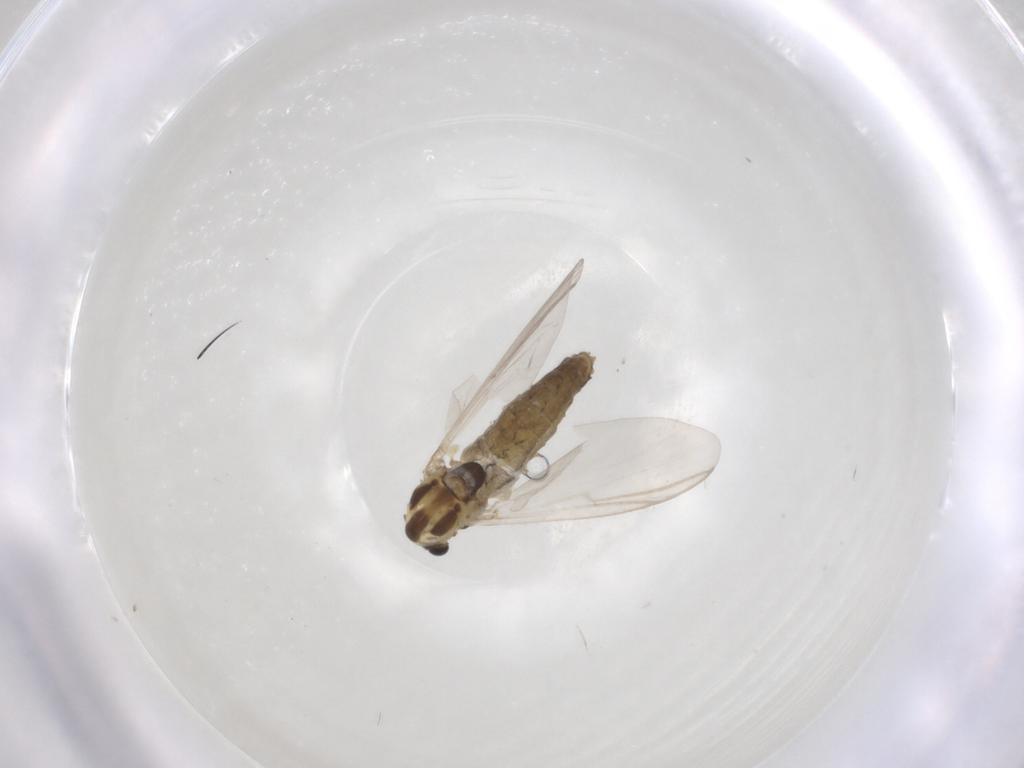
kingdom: Animalia
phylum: Arthropoda
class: Insecta
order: Diptera
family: Chironomidae
